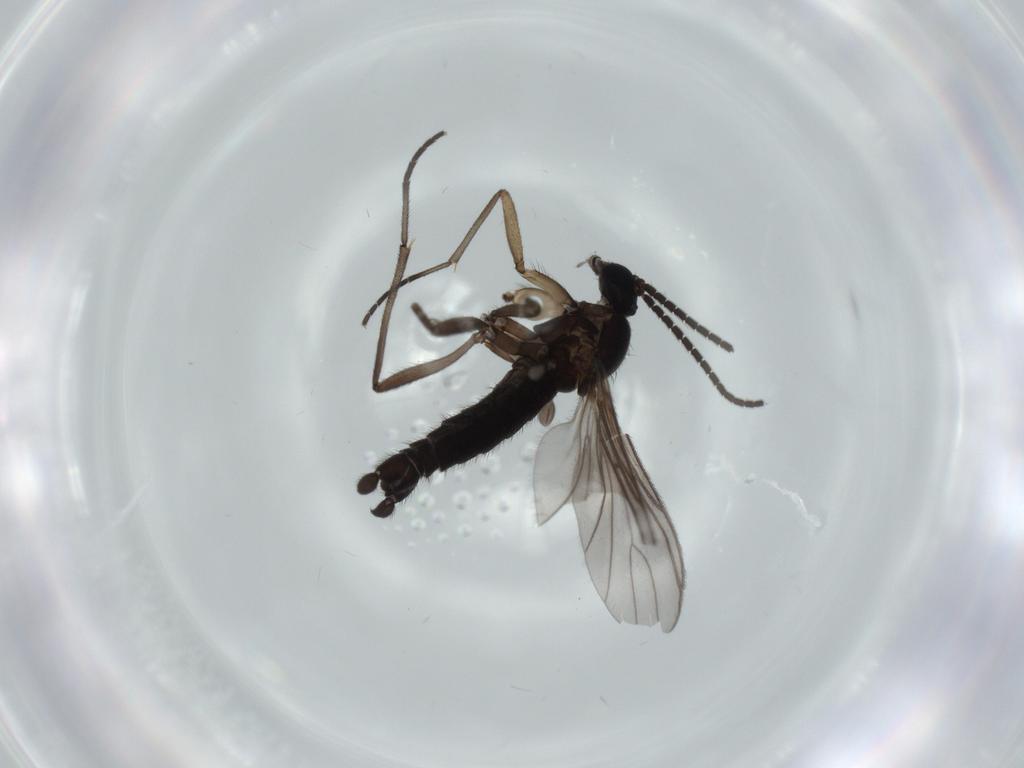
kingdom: Animalia
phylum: Arthropoda
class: Insecta
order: Diptera
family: Sciaridae
